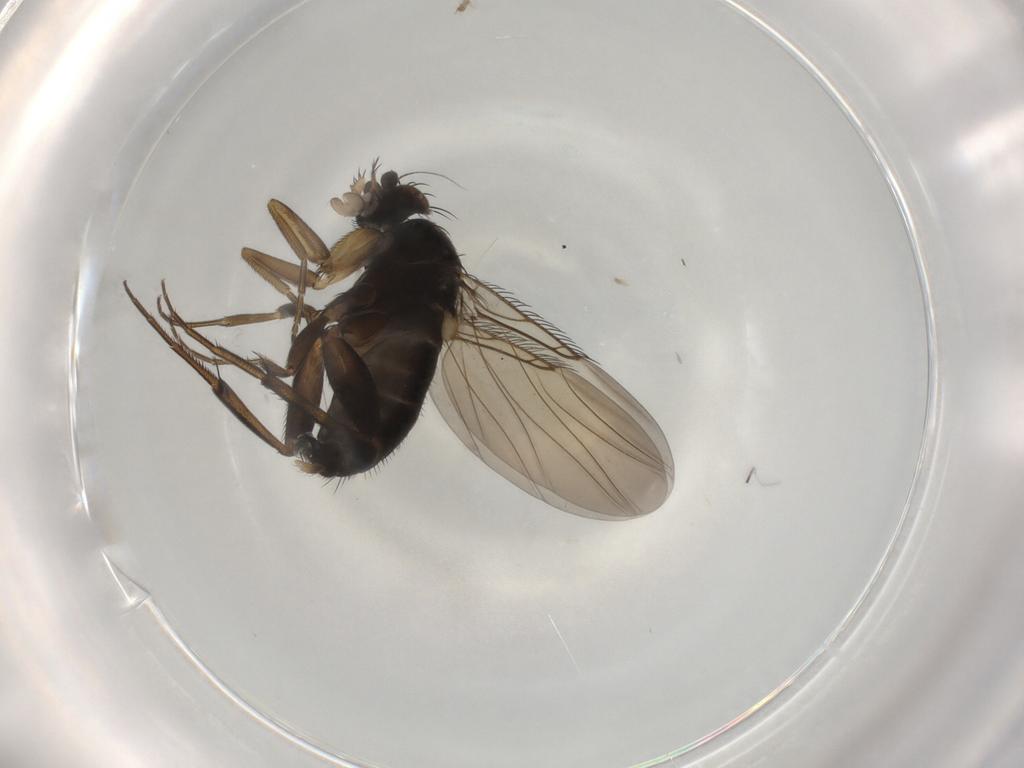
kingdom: Animalia
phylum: Arthropoda
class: Insecta
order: Diptera
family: Phoridae
